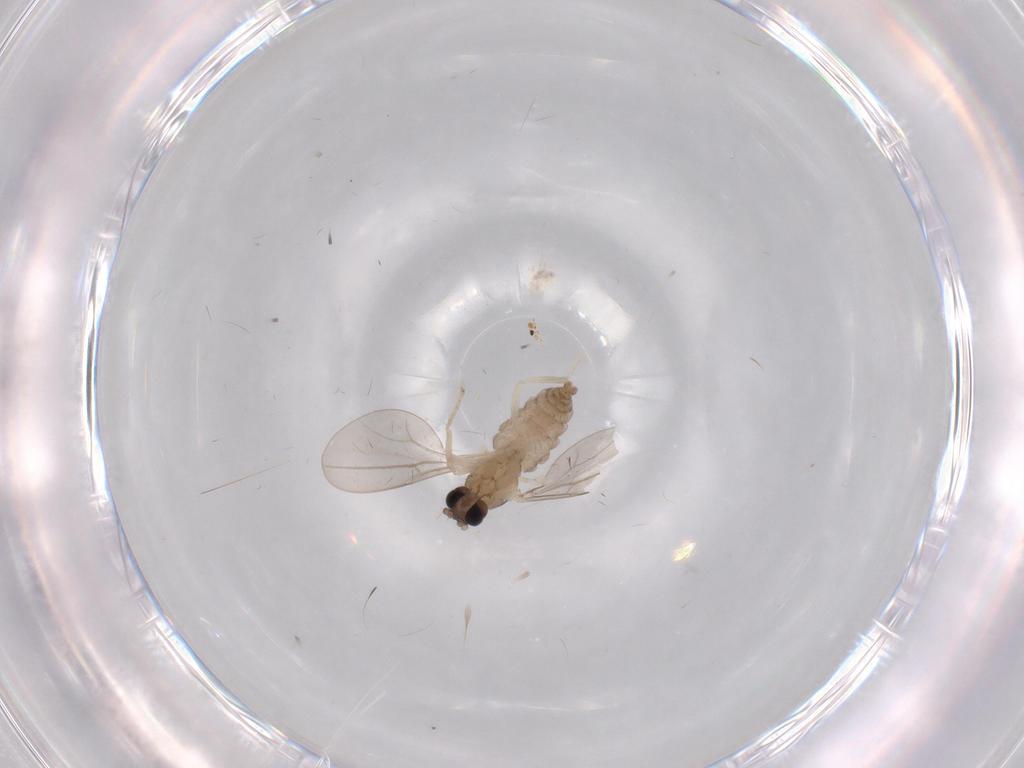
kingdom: Animalia
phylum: Arthropoda
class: Insecta
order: Diptera
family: Cecidomyiidae
